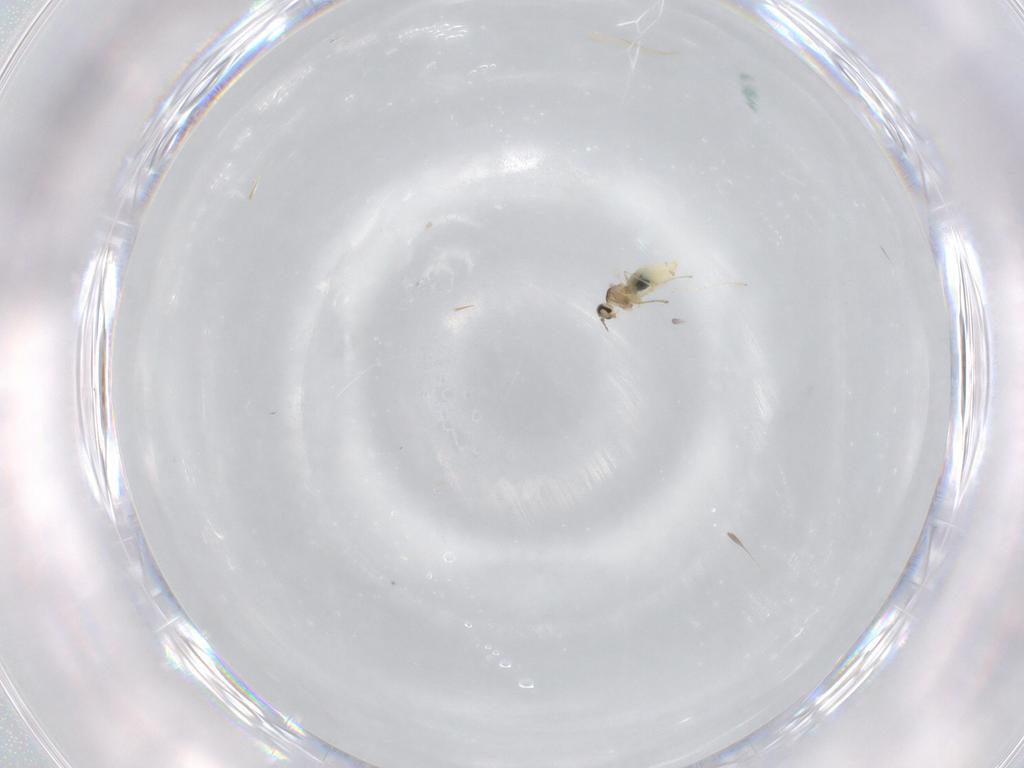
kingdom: Animalia
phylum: Arthropoda
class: Insecta
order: Diptera
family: Cecidomyiidae
